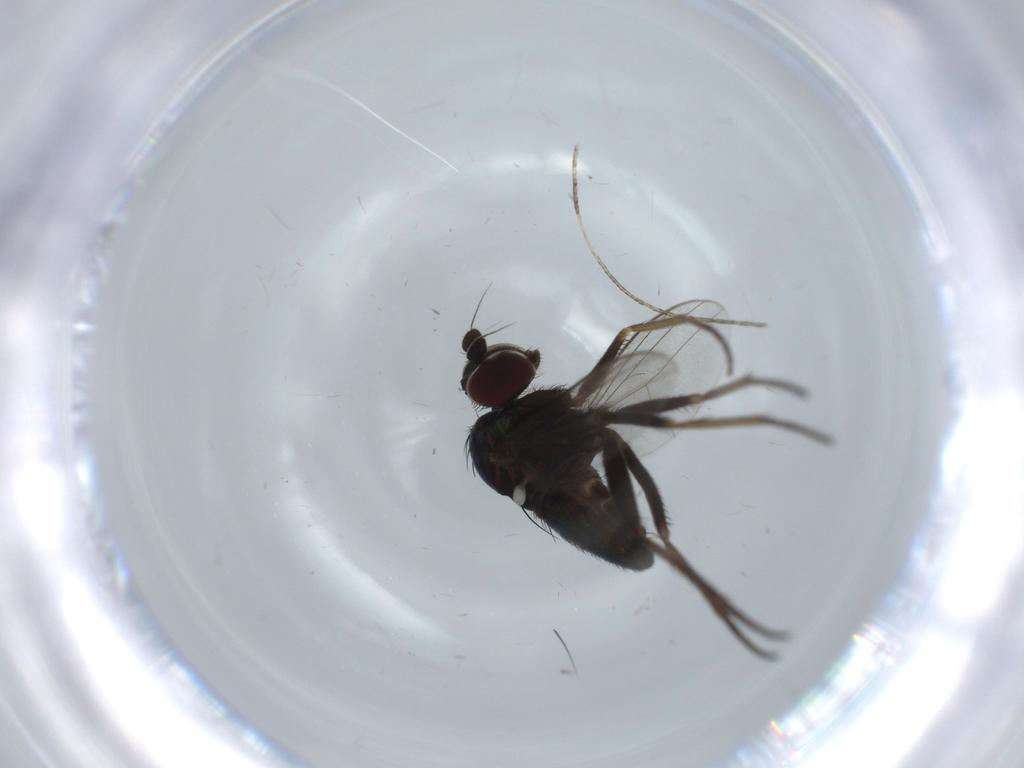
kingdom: Animalia
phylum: Arthropoda
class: Insecta
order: Diptera
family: Dolichopodidae
